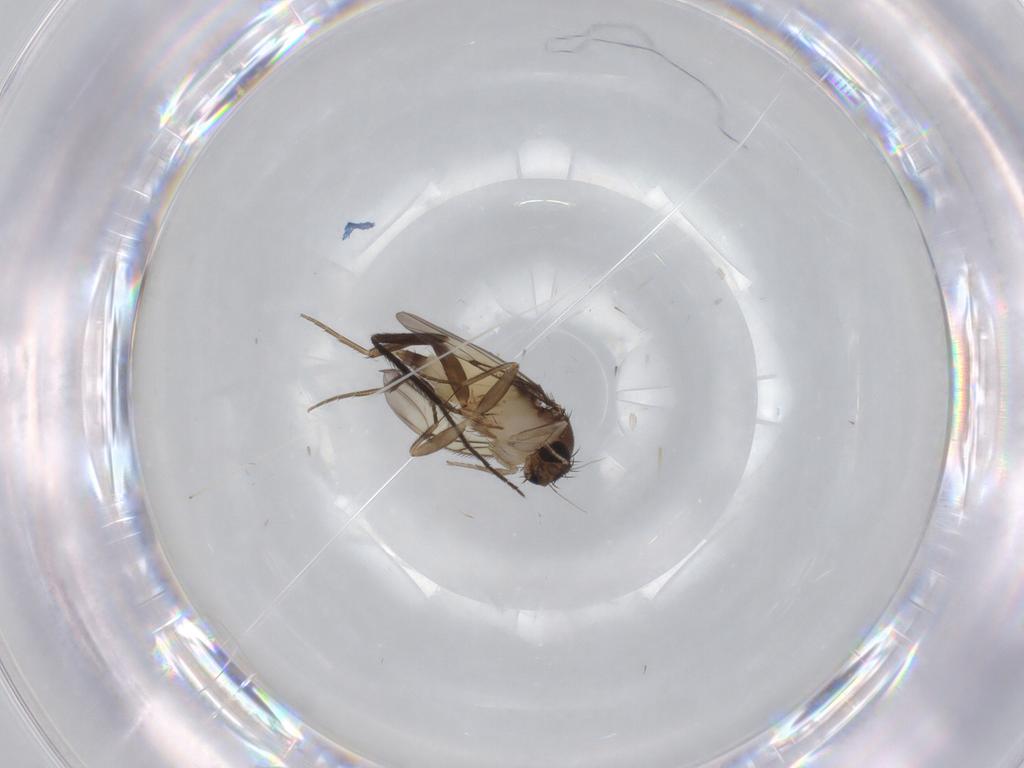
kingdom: Animalia
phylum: Arthropoda
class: Insecta
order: Diptera
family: Chironomidae
